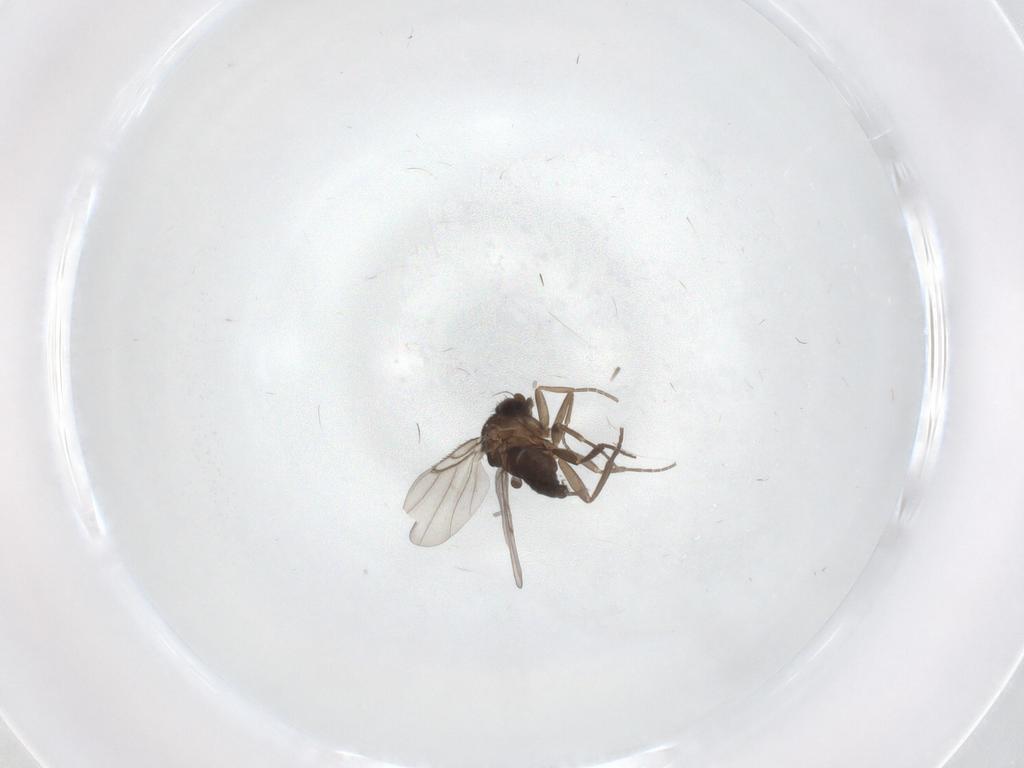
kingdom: Animalia
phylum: Arthropoda
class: Insecta
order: Diptera
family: Phoridae
